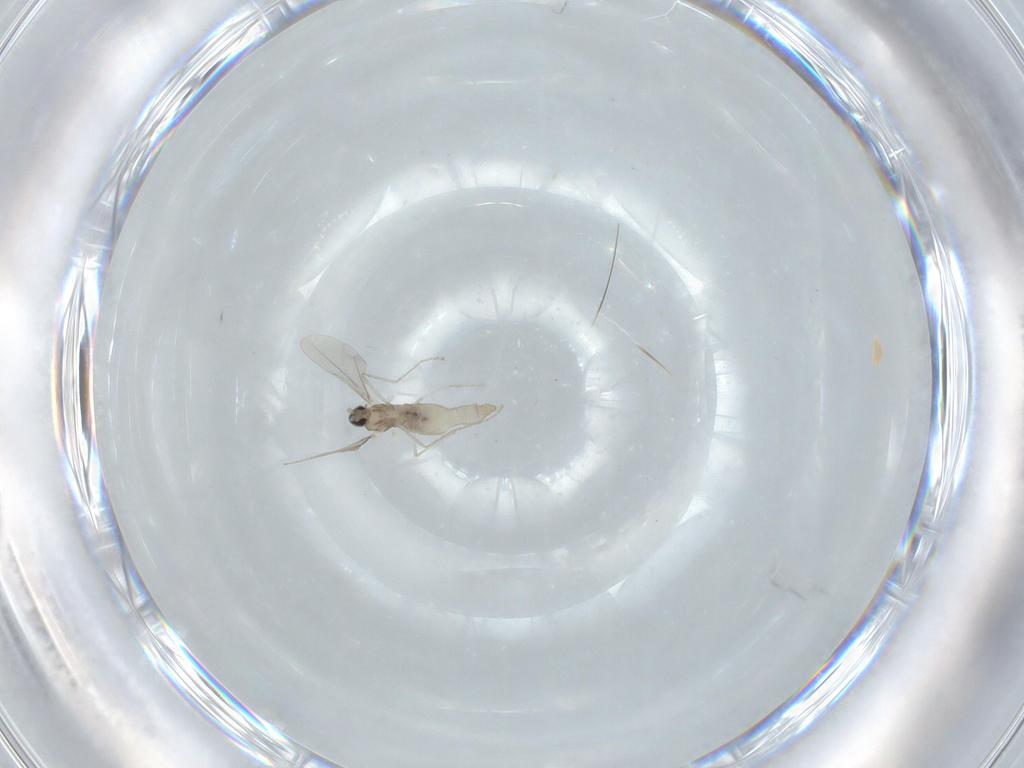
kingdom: Animalia
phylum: Arthropoda
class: Insecta
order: Diptera
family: Cecidomyiidae
